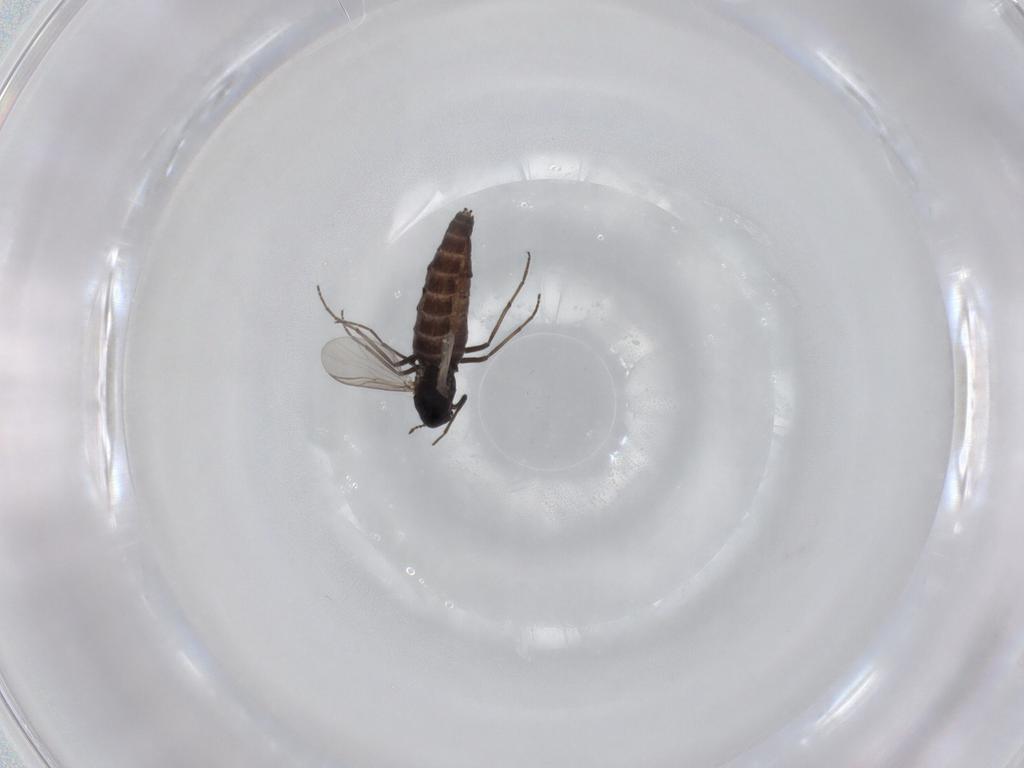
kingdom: Animalia
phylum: Arthropoda
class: Insecta
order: Diptera
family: Chironomidae
